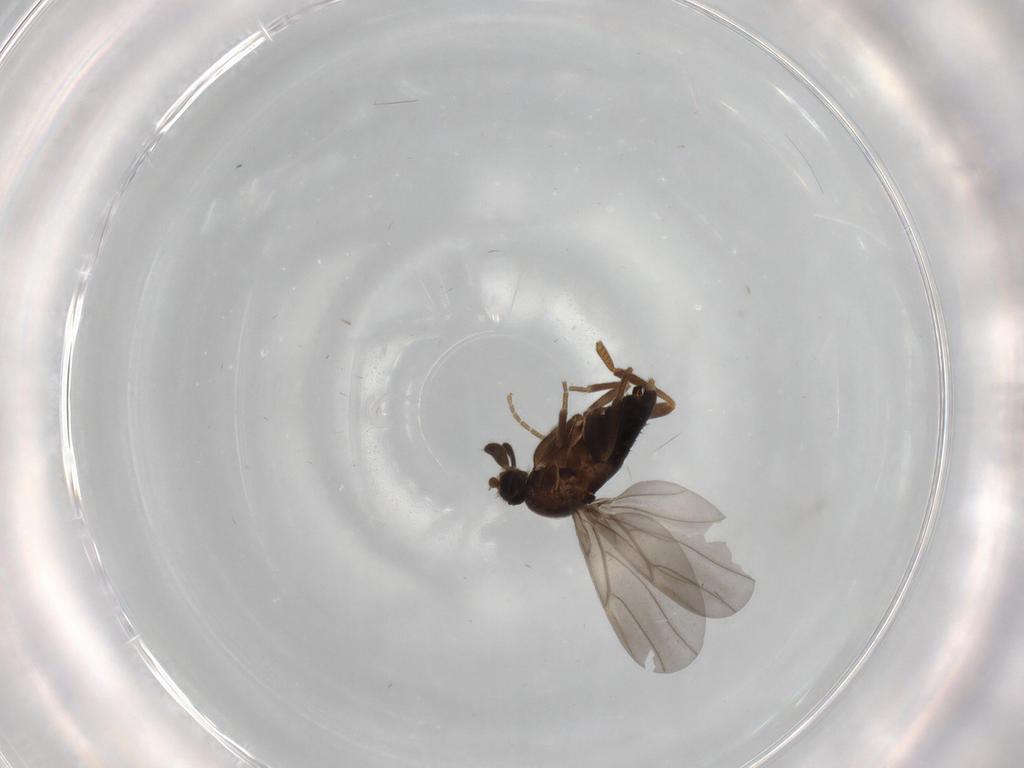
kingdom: Animalia
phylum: Arthropoda
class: Insecta
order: Diptera
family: Phoridae
